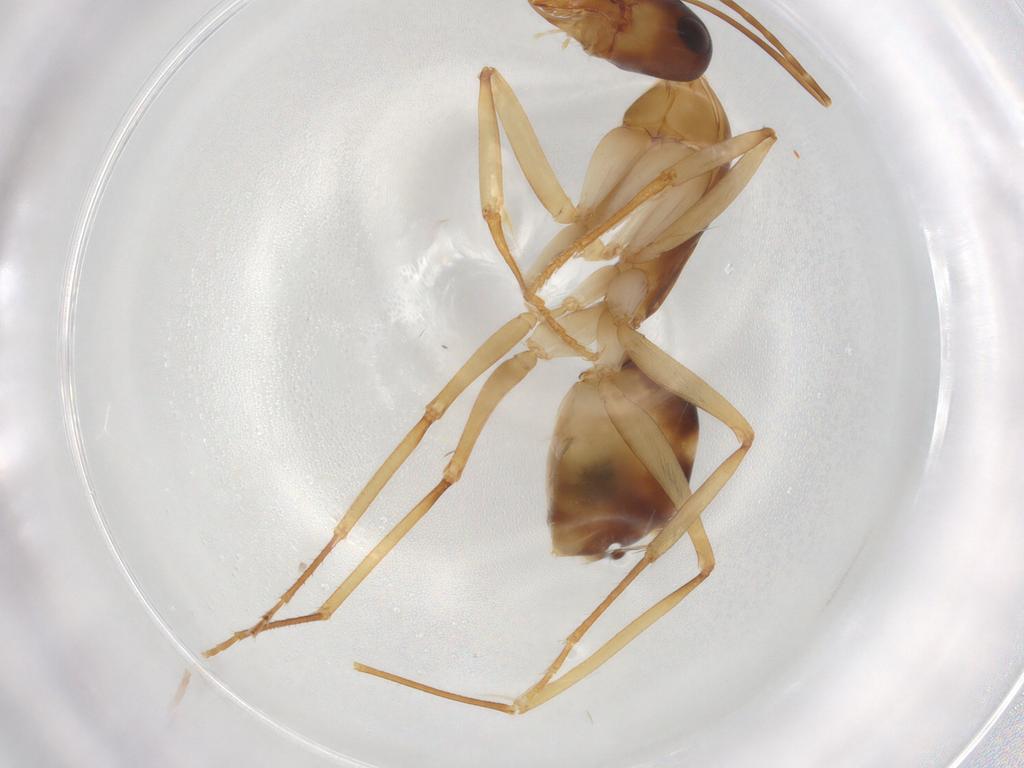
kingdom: Animalia
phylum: Arthropoda
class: Insecta
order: Hymenoptera
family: Formicidae
